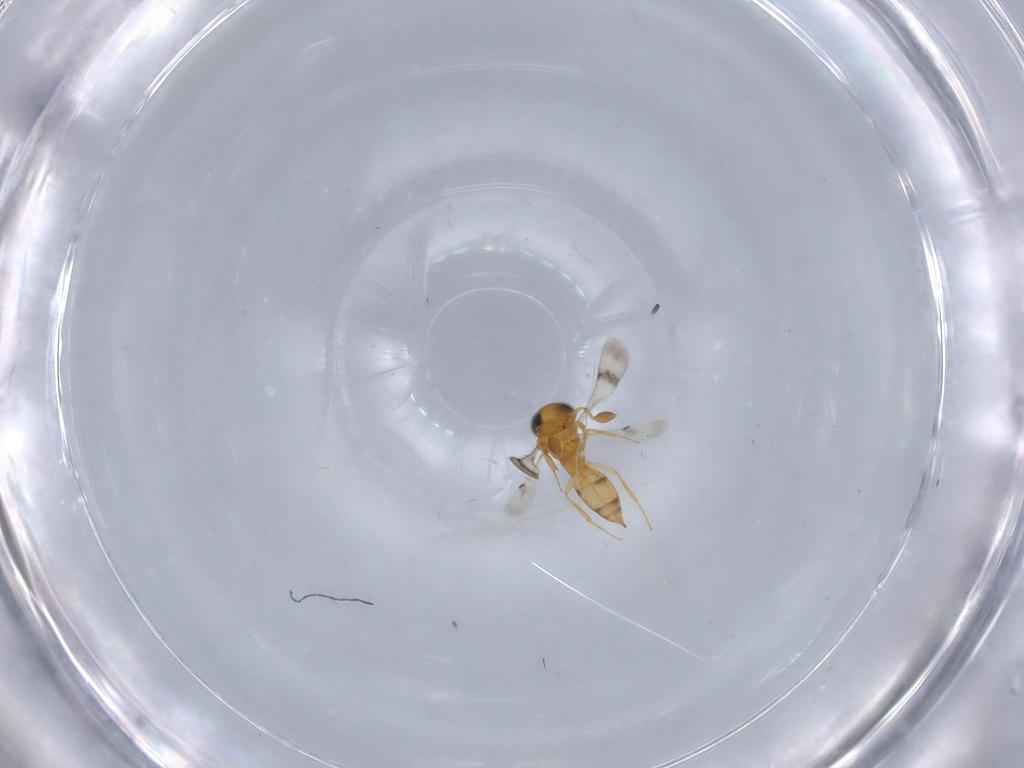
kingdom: Animalia
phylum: Arthropoda
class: Insecta
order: Hymenoptera
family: Scelionidae
